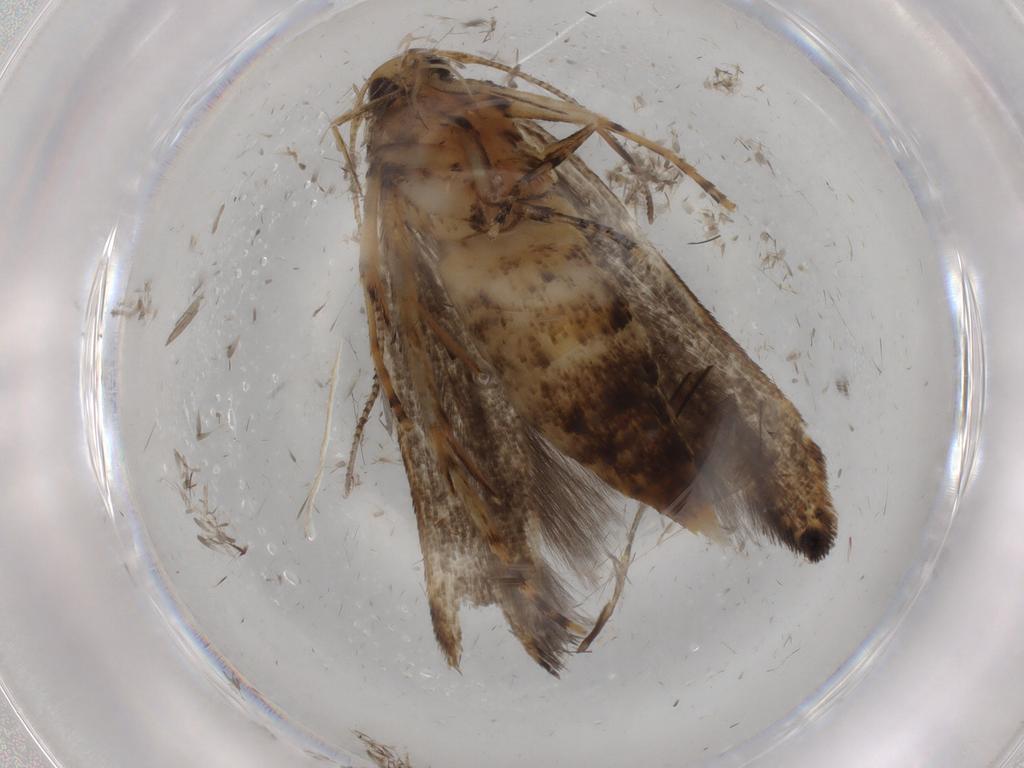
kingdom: Animalia
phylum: Arthropoda
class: Insecta
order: Lepidoptera
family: Cosmopterigidae
